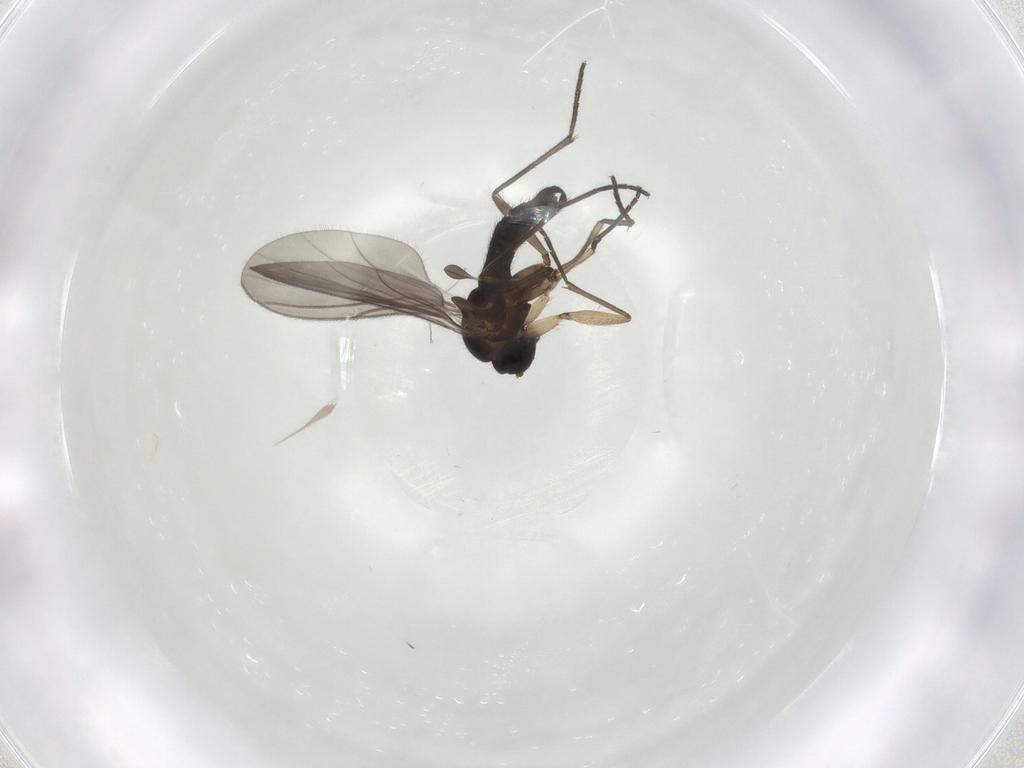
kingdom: Animalia
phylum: Arthropoda
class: Insecta
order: Diptera
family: Sciaridae
